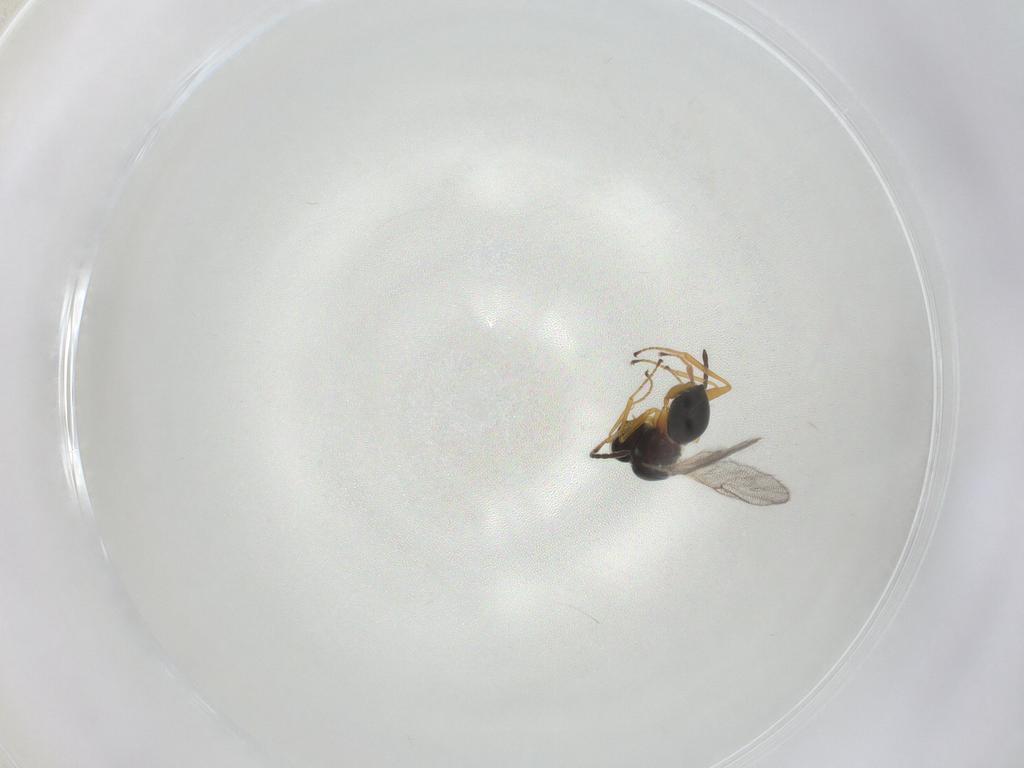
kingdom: Animalia
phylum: Arthropoda
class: Insecta
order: Hymenoptera
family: Figitidae
